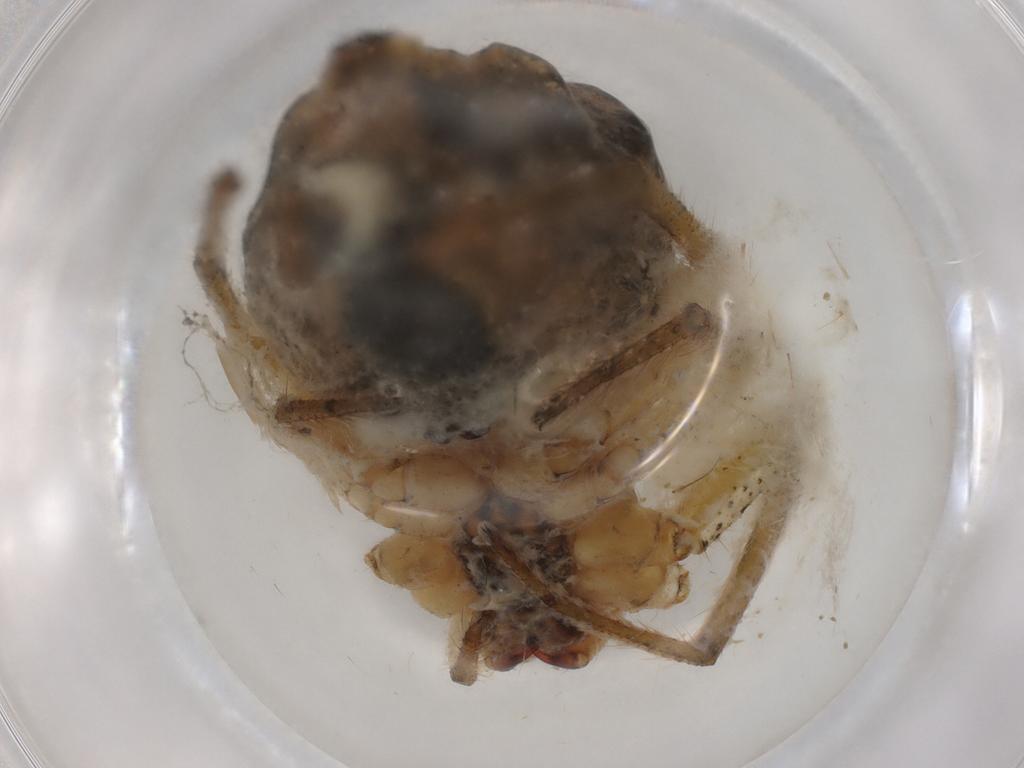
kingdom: Animalia
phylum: Arthropoda
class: Arachnida
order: Araneae
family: Araneidae
